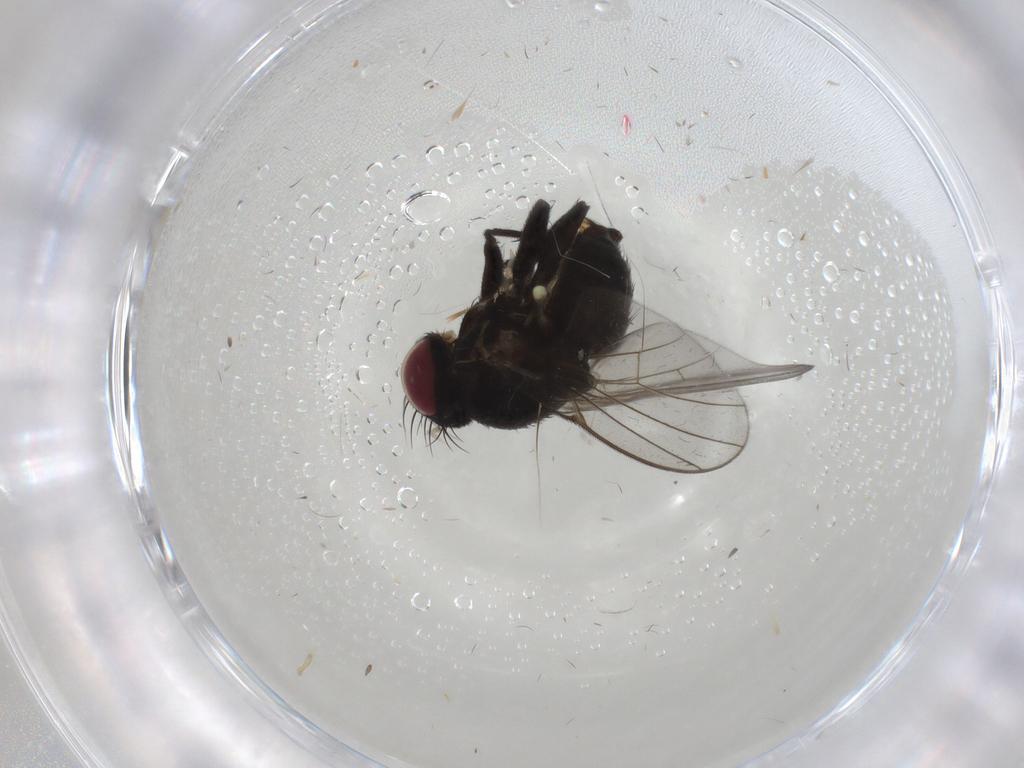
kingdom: Animalia
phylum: Arthropoda
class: Insecta
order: Diptera
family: Agromyzidae
